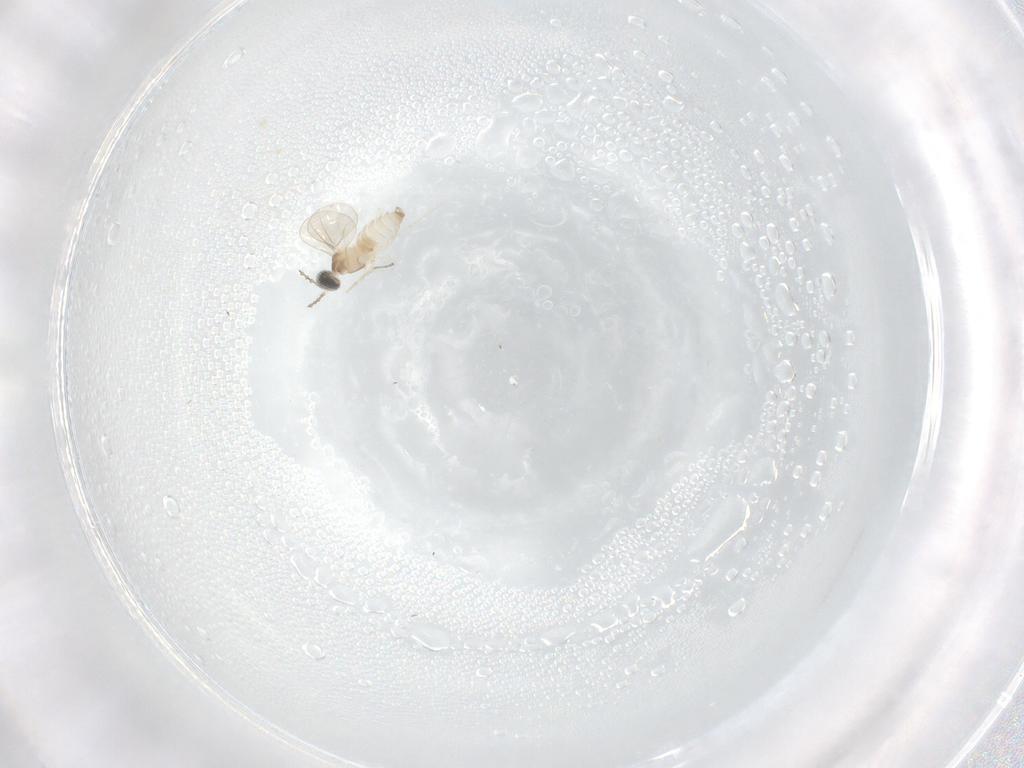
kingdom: Animalia
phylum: Arthropoda
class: Insecta
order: Diptera
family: Cecidomyiidae
